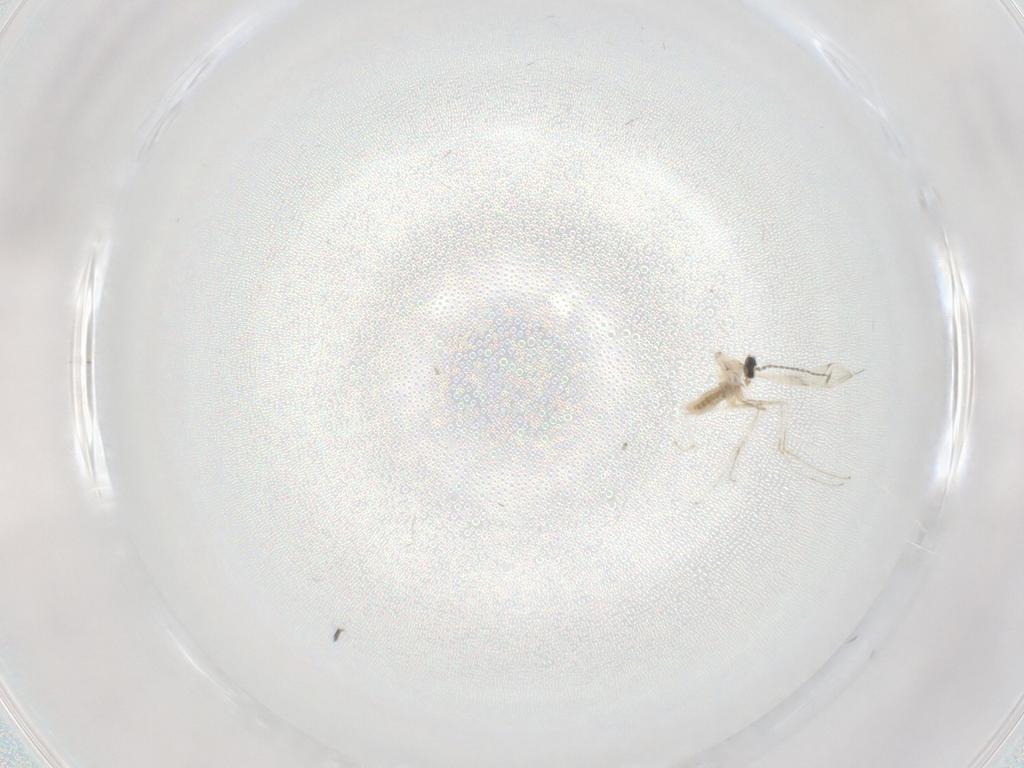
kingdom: Animalia
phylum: Arthropoda
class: Insecta
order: Diptera
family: Cecidomyiidae
